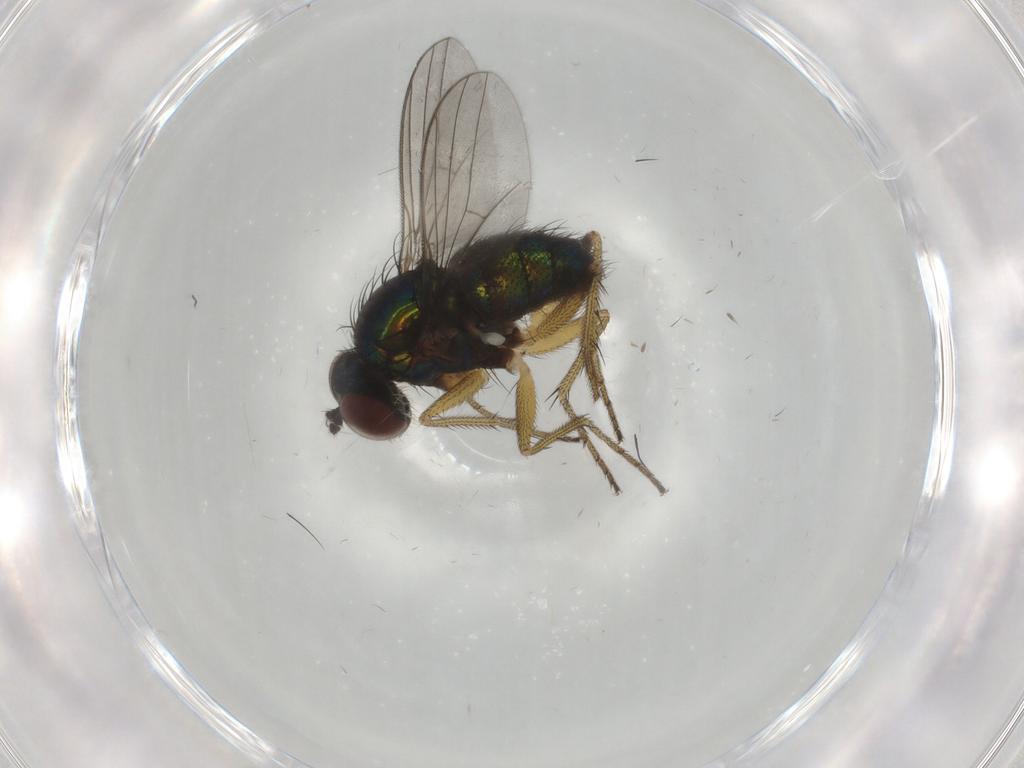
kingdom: Animalia
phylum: Arthropoda
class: Insecta
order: Diptera
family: Dolichopodidae
